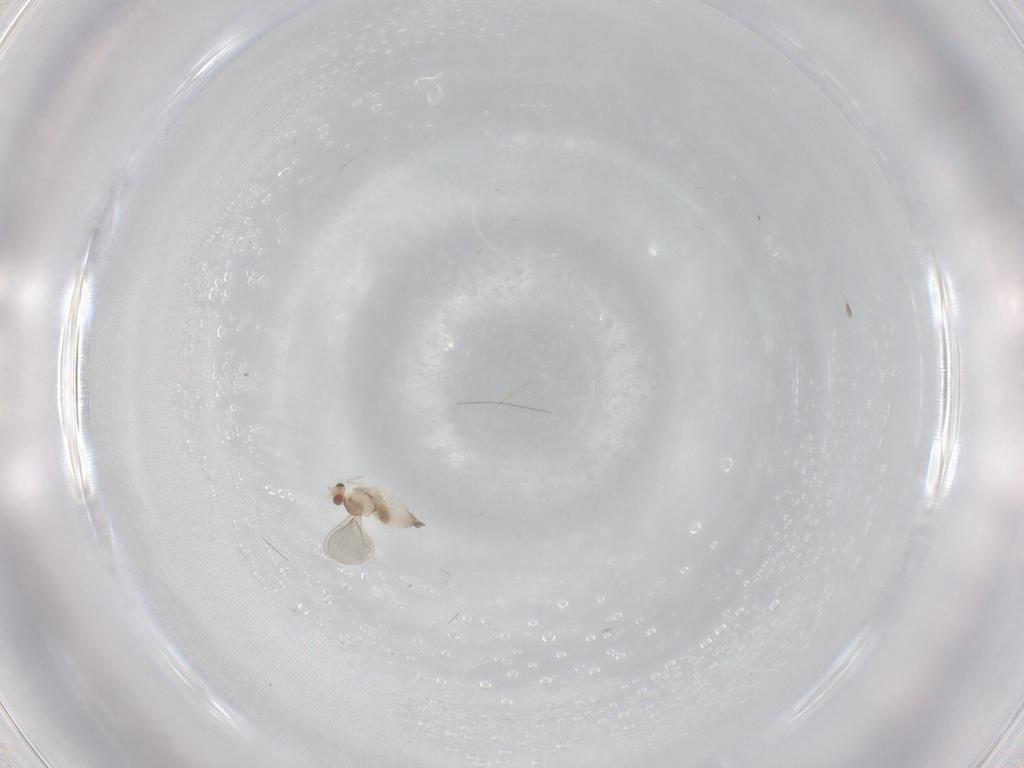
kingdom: Animalia
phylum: Arthropoda
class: Insecta
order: Diptera
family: Cecidomyiidae
